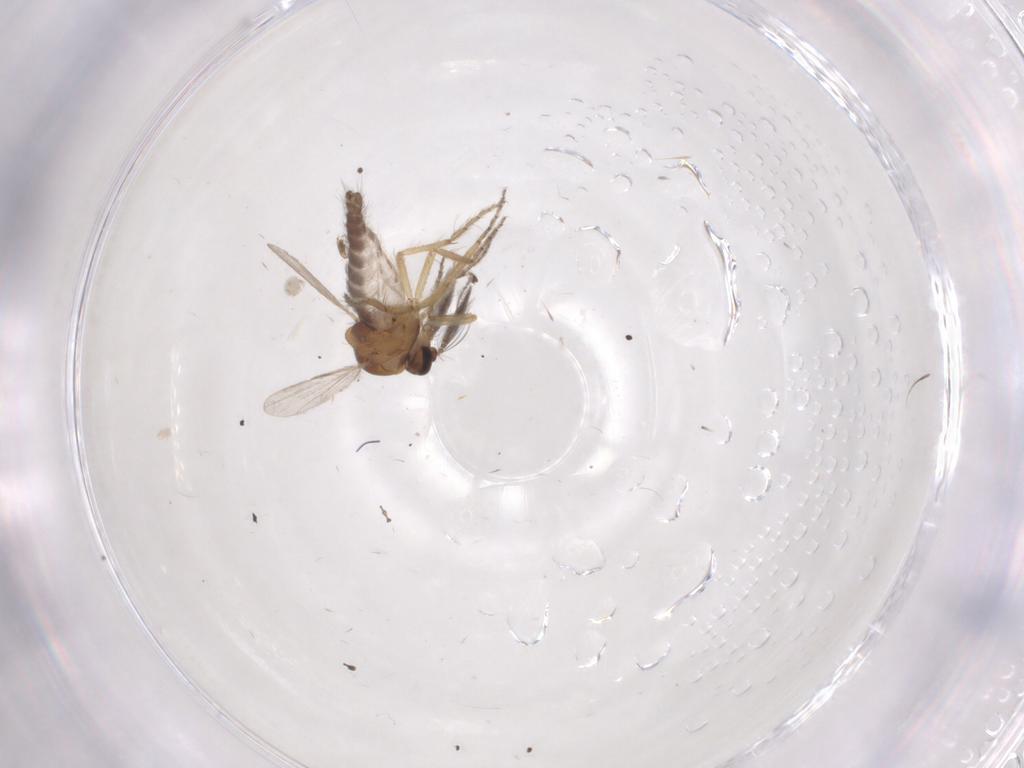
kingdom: Animalia
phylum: Arthropoda
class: Insecta
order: Diptera
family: Ceratopogonidae
